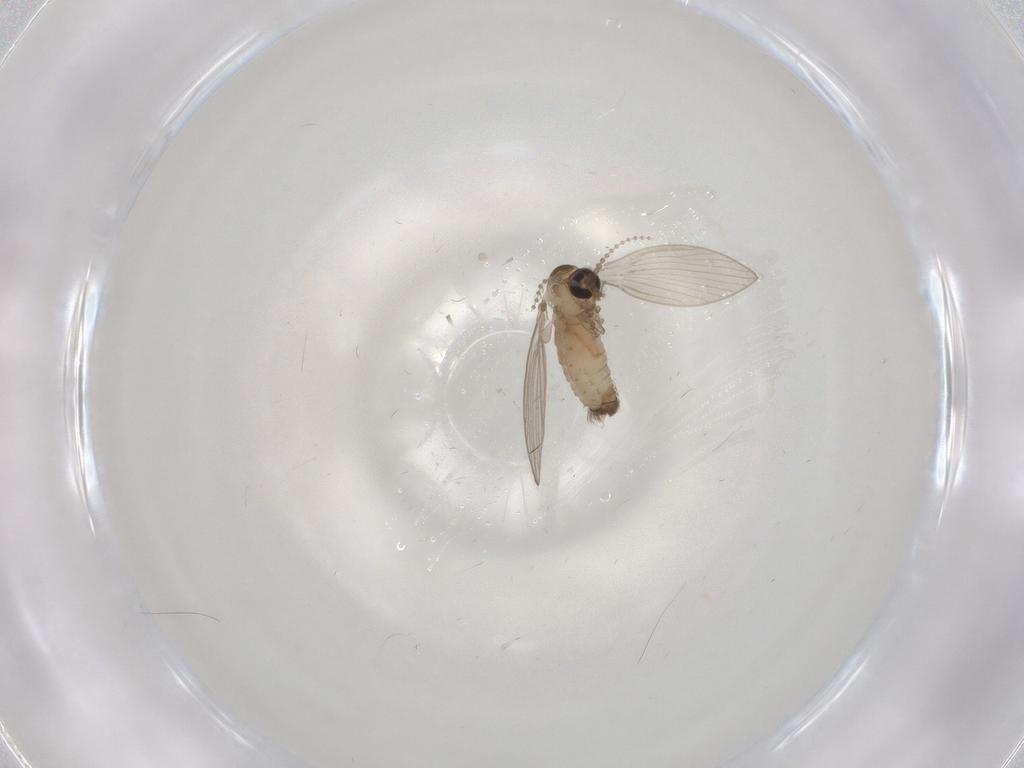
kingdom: Animalia
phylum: Arthropoda
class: Insecta
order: Diptera
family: Psychodidae
